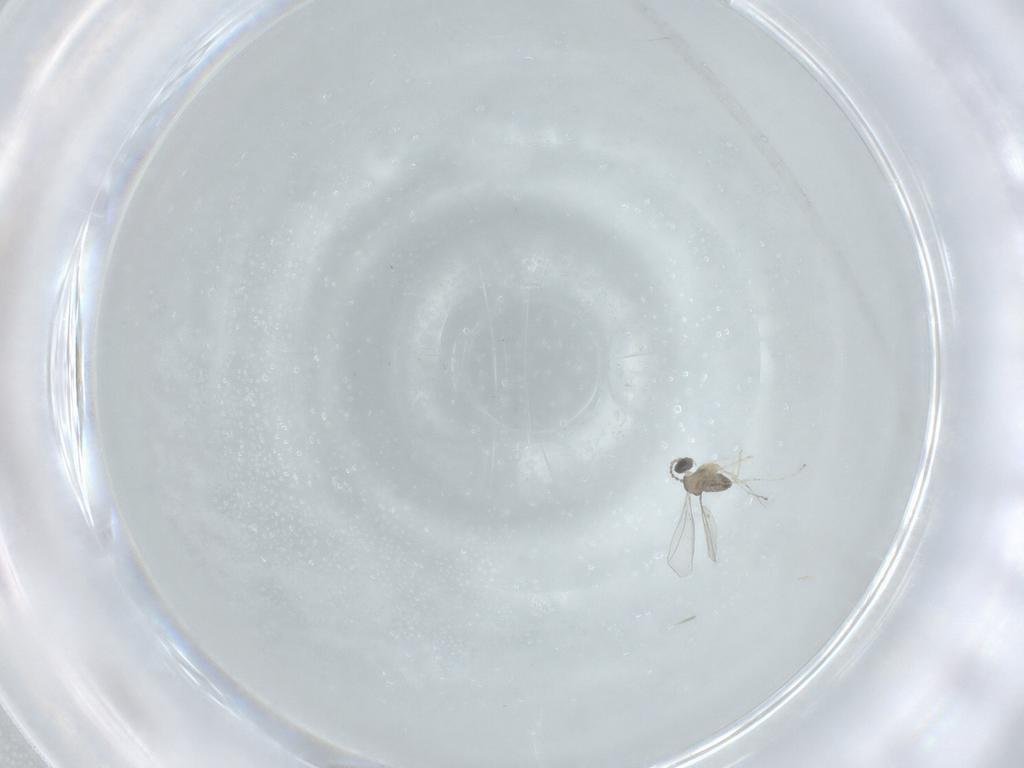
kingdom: Animalia
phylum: Arthropoda
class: Insecta
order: Diptera
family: Cecidomyiidae
